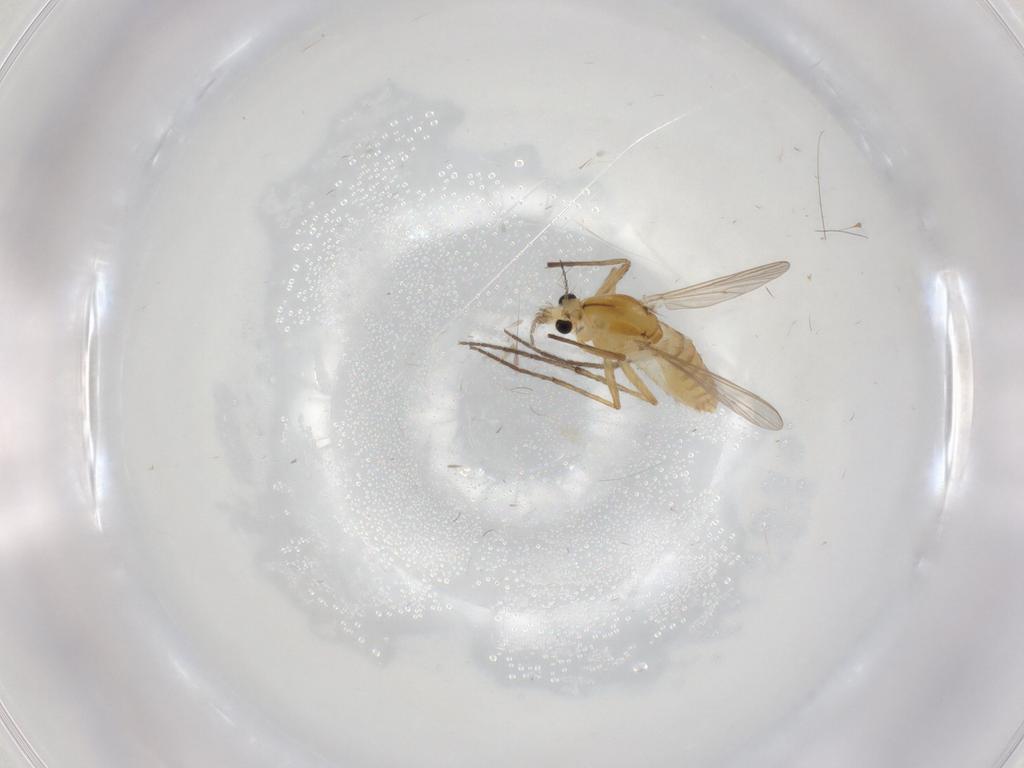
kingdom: Animalia
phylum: Arthropoda
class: Insecta
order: Diptera
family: Chironomidae
